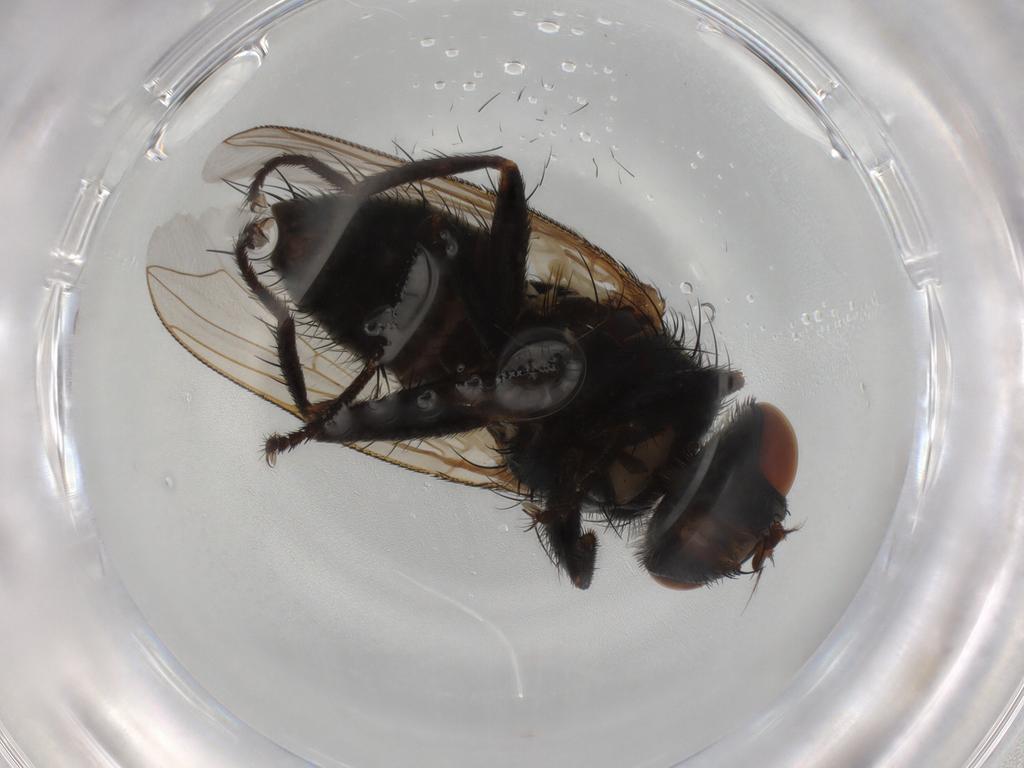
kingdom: Animalia
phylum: Arthropoda
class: Insecta
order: Diptera
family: Sarcophagidae
